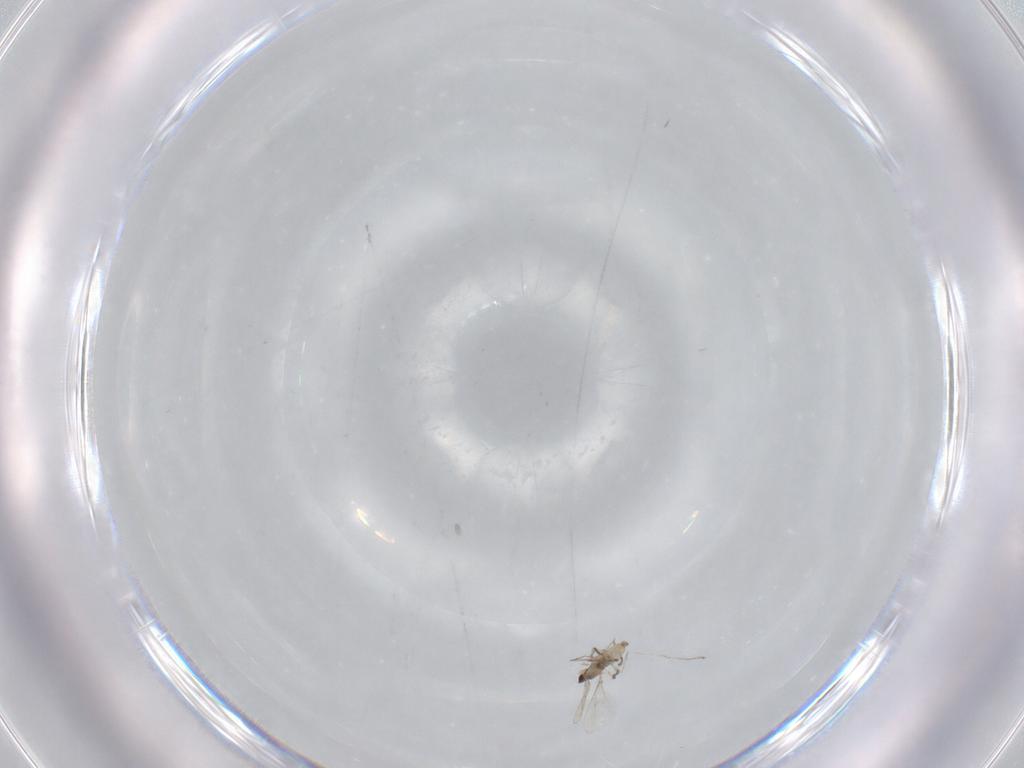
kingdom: Animalia
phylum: Arthropoda
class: Insecta
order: Diptera
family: Cecidomyiidae
